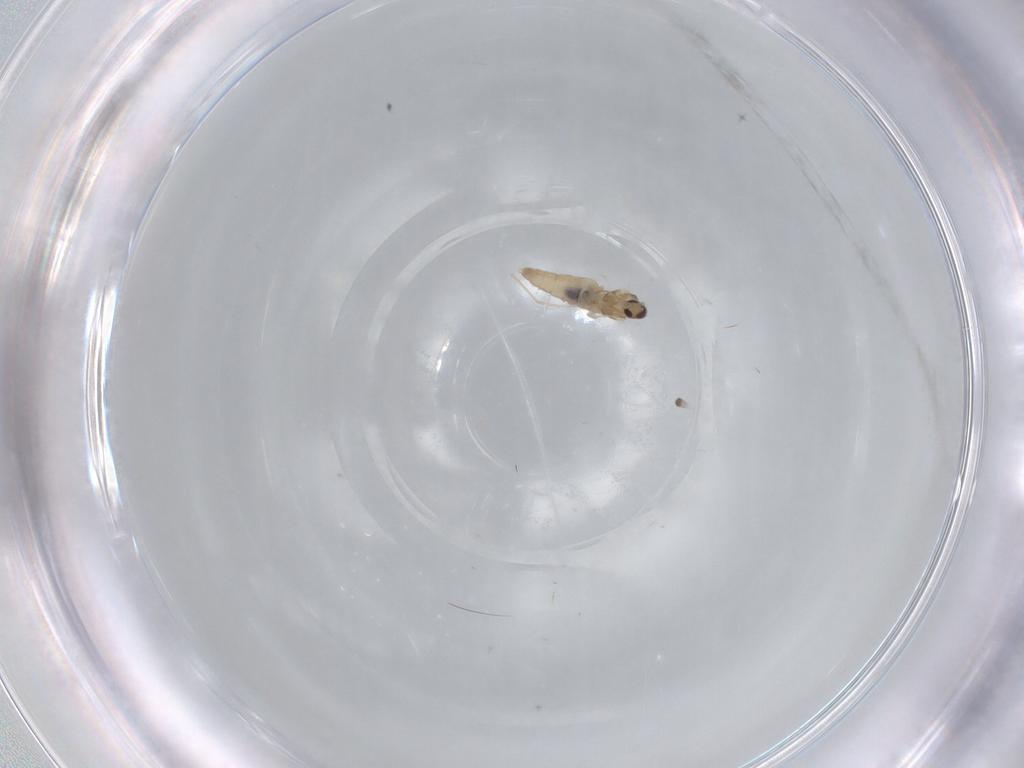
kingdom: Animalia
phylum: Arthropoda
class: Insecta
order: Diptera
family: Cecidomyiidae
